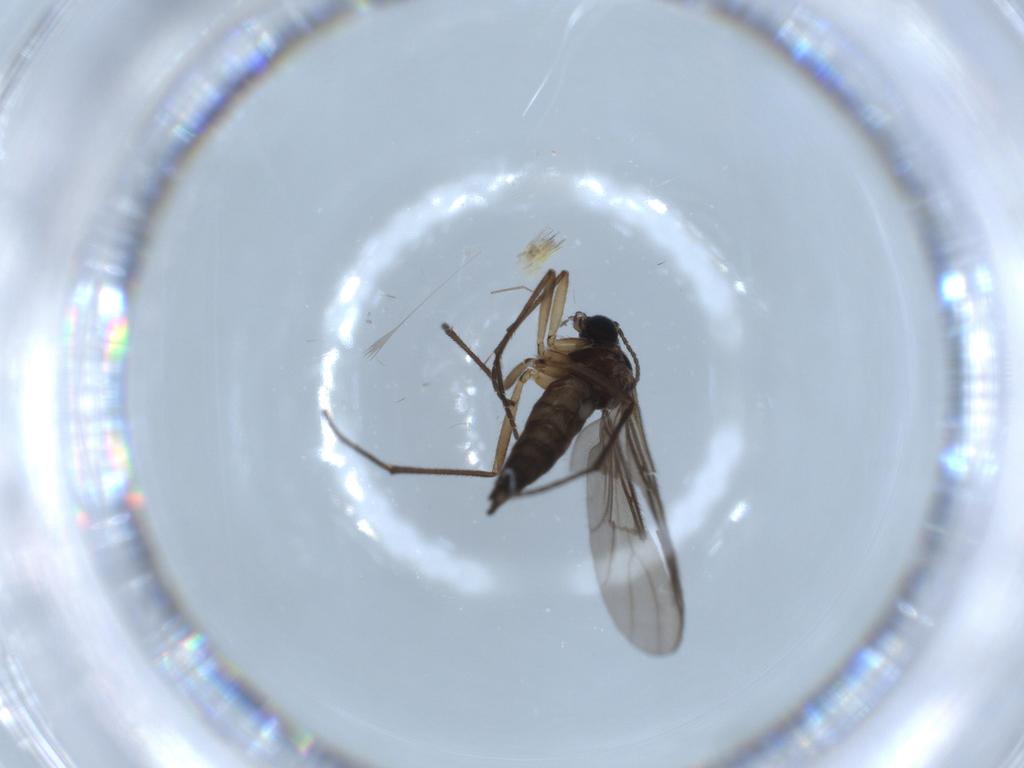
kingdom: Animalia
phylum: Arthropoda
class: Insecta
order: Diptera
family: Sciaridae
